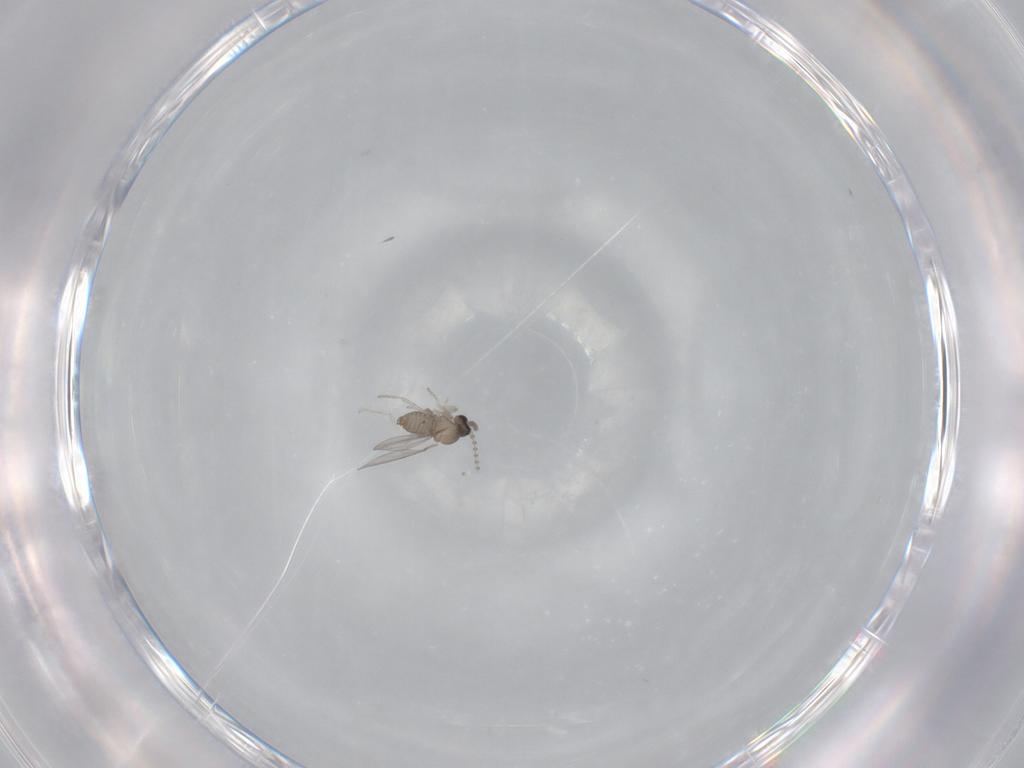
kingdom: Animalia
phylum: Arthropoda
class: Insecta
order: Diptera
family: Cecidomyiidae
